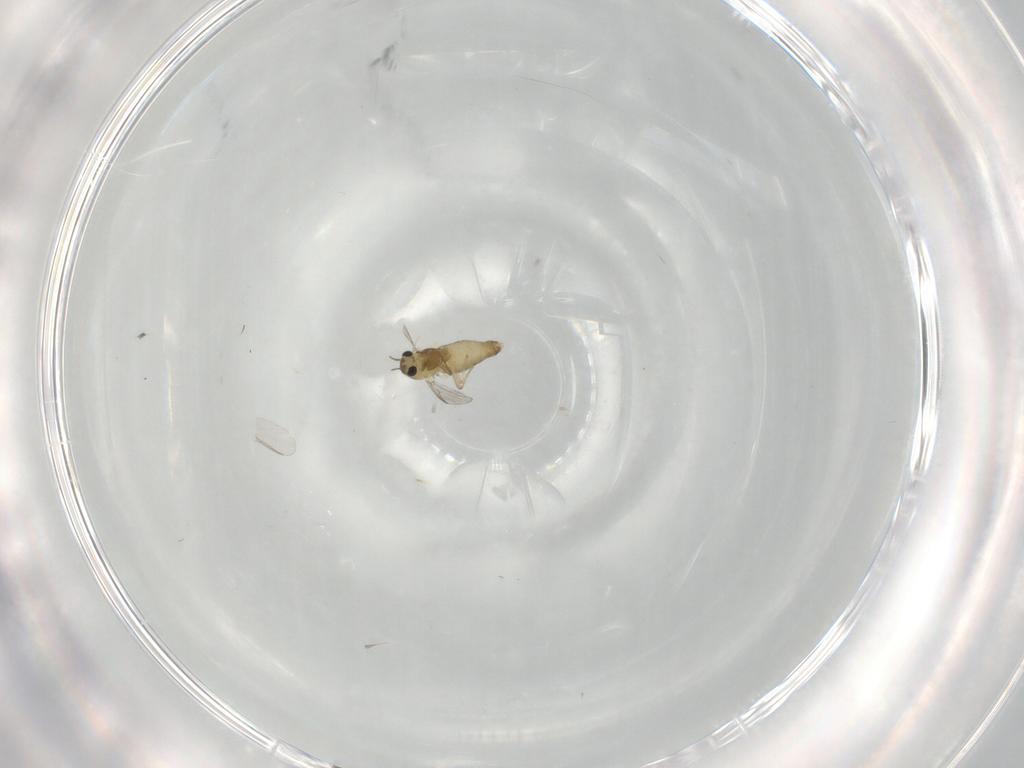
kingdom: Animalia
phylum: Arthropoda
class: Insecta
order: Diptera
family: Chironomidae
